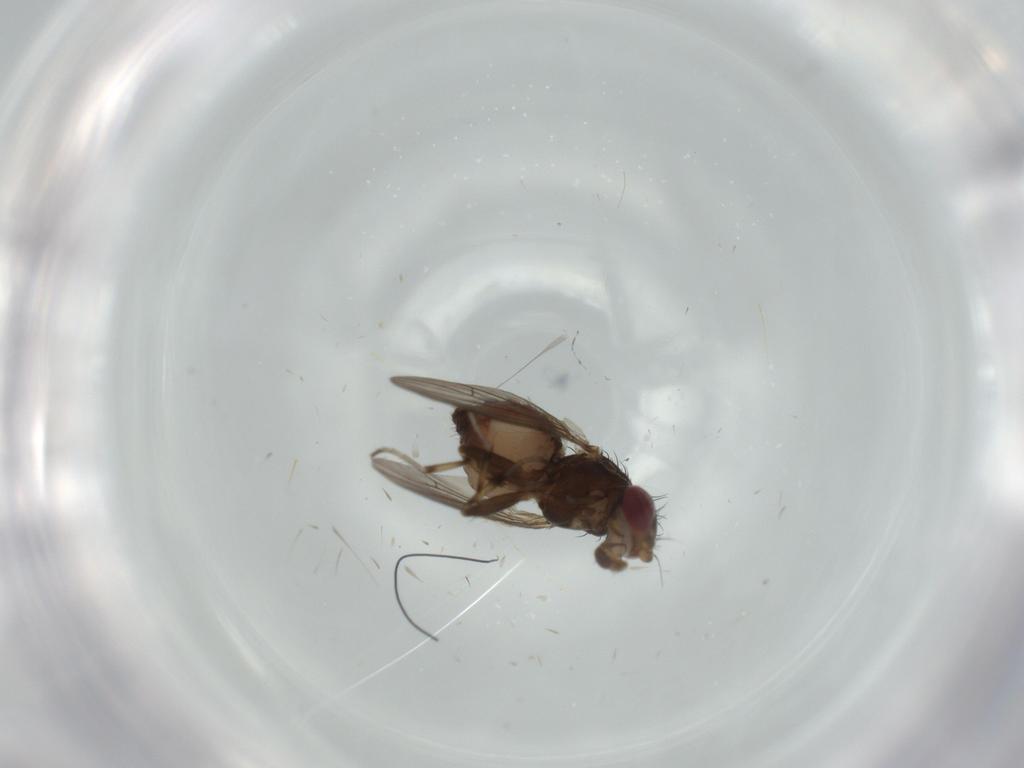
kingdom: Animalia
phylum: Arthropoda
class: Insecta
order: Diptera
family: Heleomyzidae
